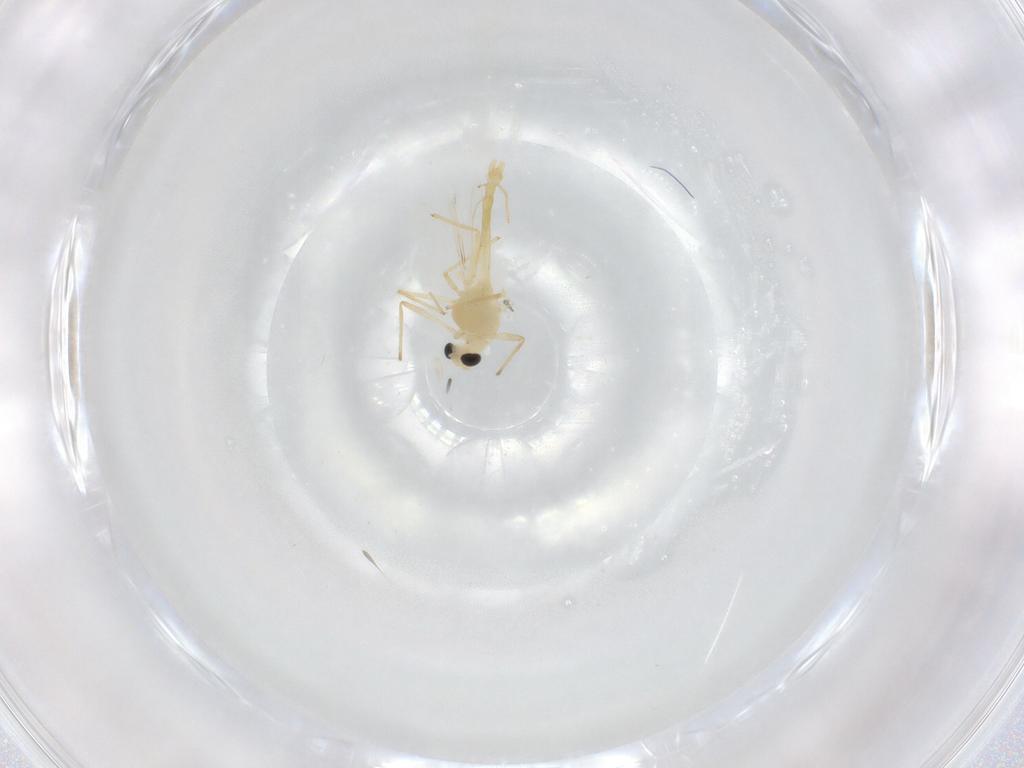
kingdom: Animalia
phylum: Arthropoda
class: Insecta
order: Diptera
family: Chironomidae
